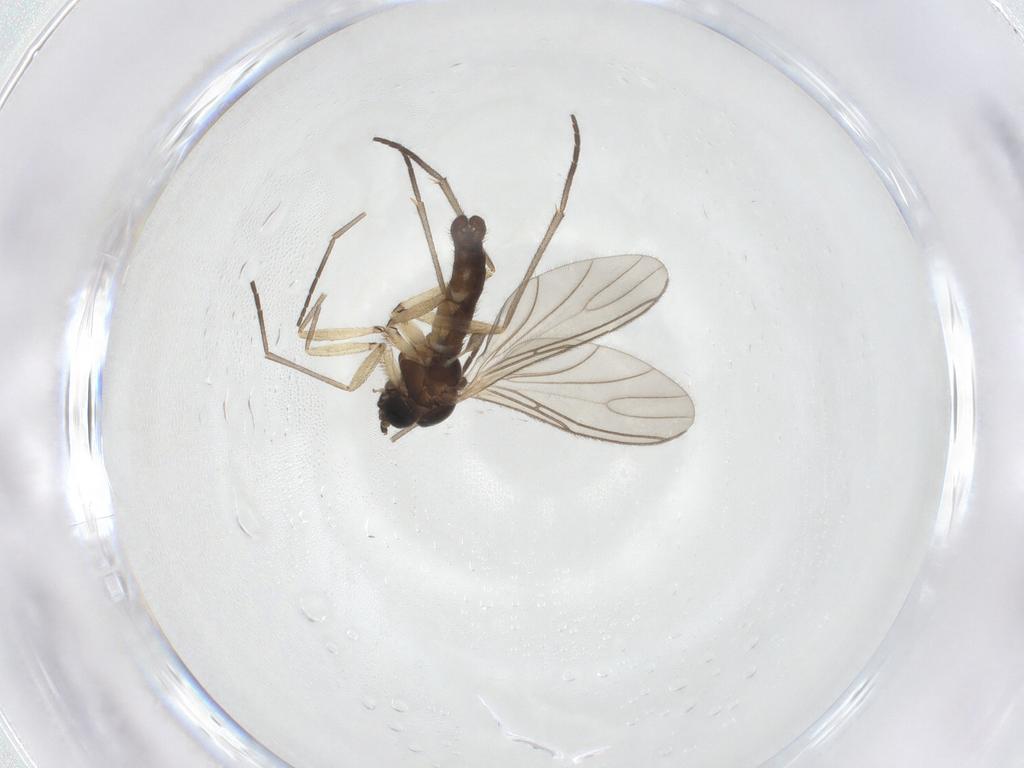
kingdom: Animalia
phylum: Arthropoda
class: Insecta
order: Diptera
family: Sciaridae
